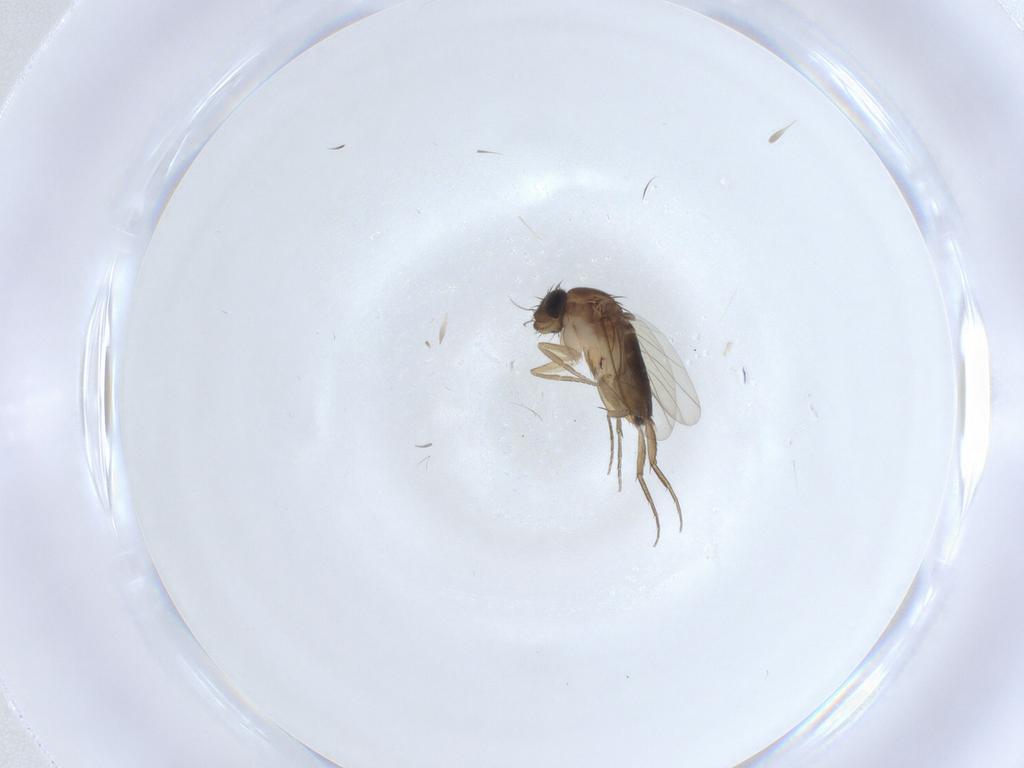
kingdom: Animalia
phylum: Arthropoda
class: Insecta
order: Diptera
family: Phoridae
